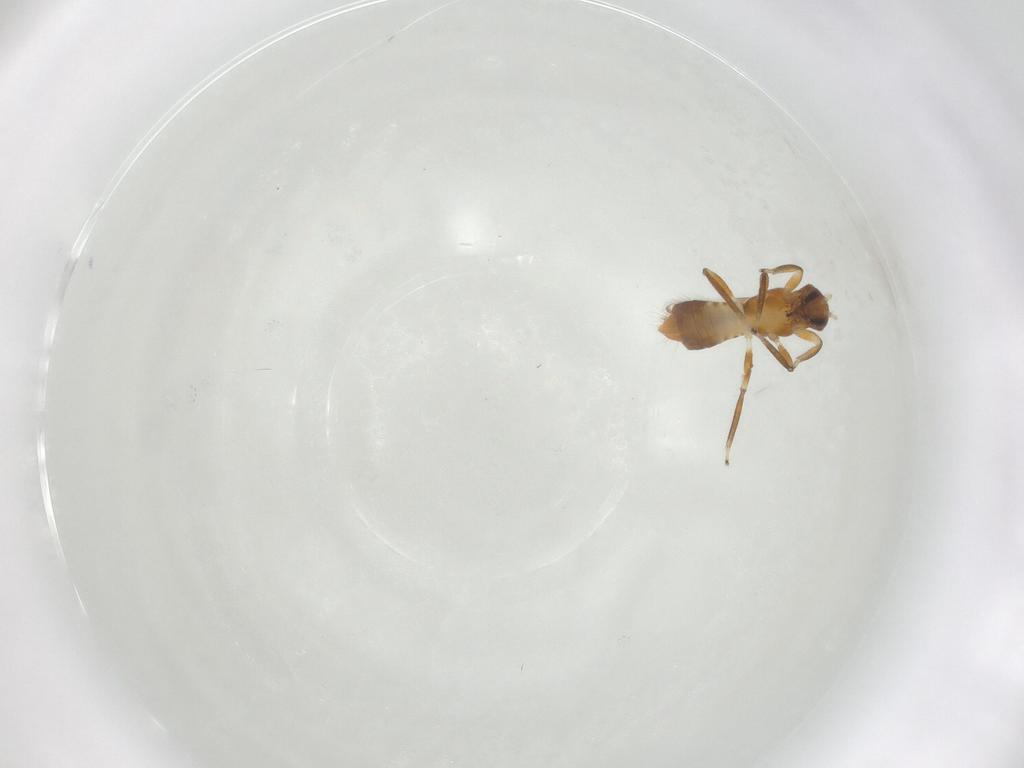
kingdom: Animalia
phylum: Arthropoda
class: Insecta
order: Thysanoptera
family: Aeolothripidae
